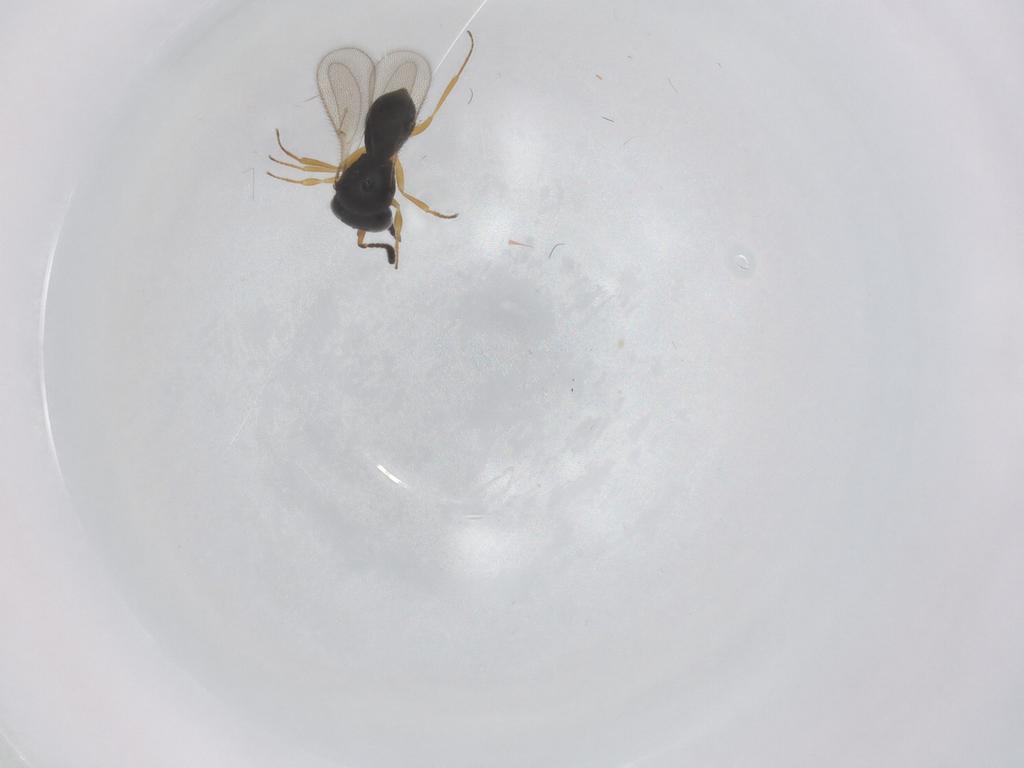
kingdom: Animalia
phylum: Arthropoda
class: Insecta
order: Hymenoptera
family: Scelionidae
